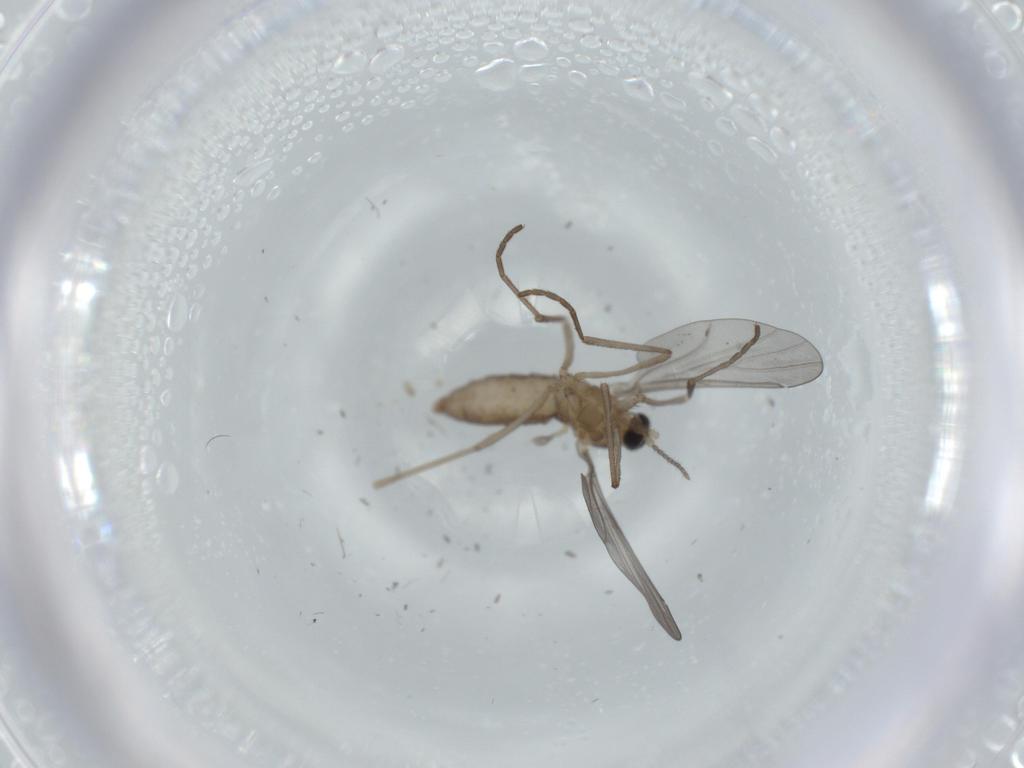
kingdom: Animalia
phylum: Arthropoda
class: Insecta
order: Diptera
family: Cecidomyiidae
